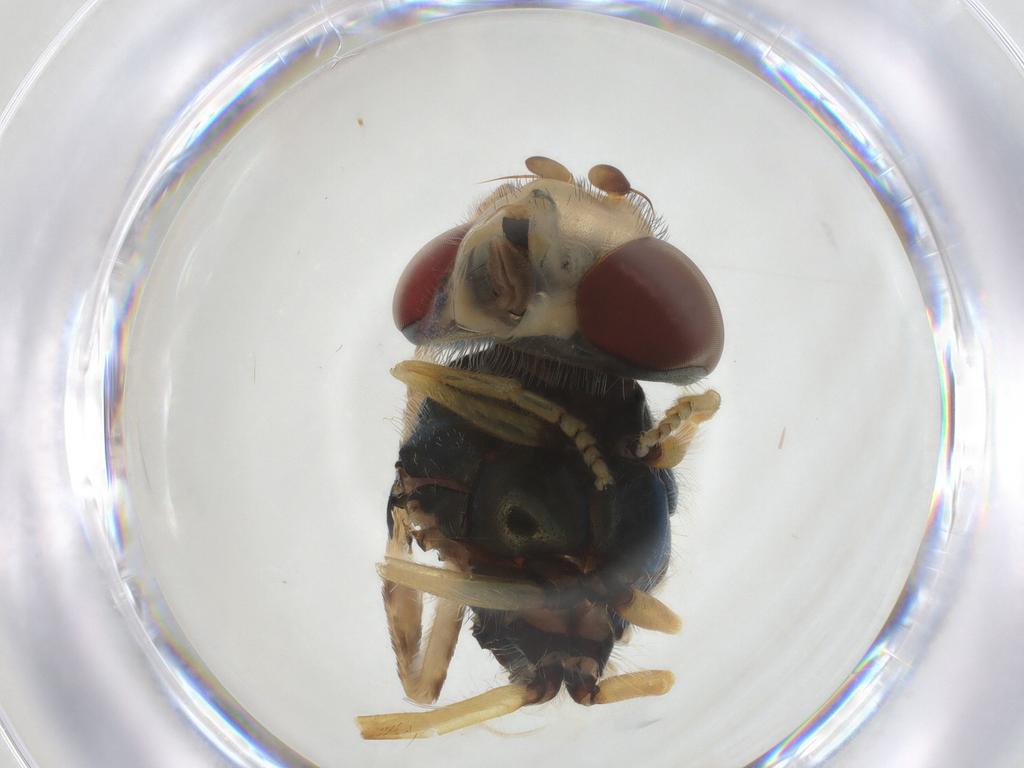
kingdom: Animalia
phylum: Arthropoda
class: Insecta
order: Diptera
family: Syrphidae
